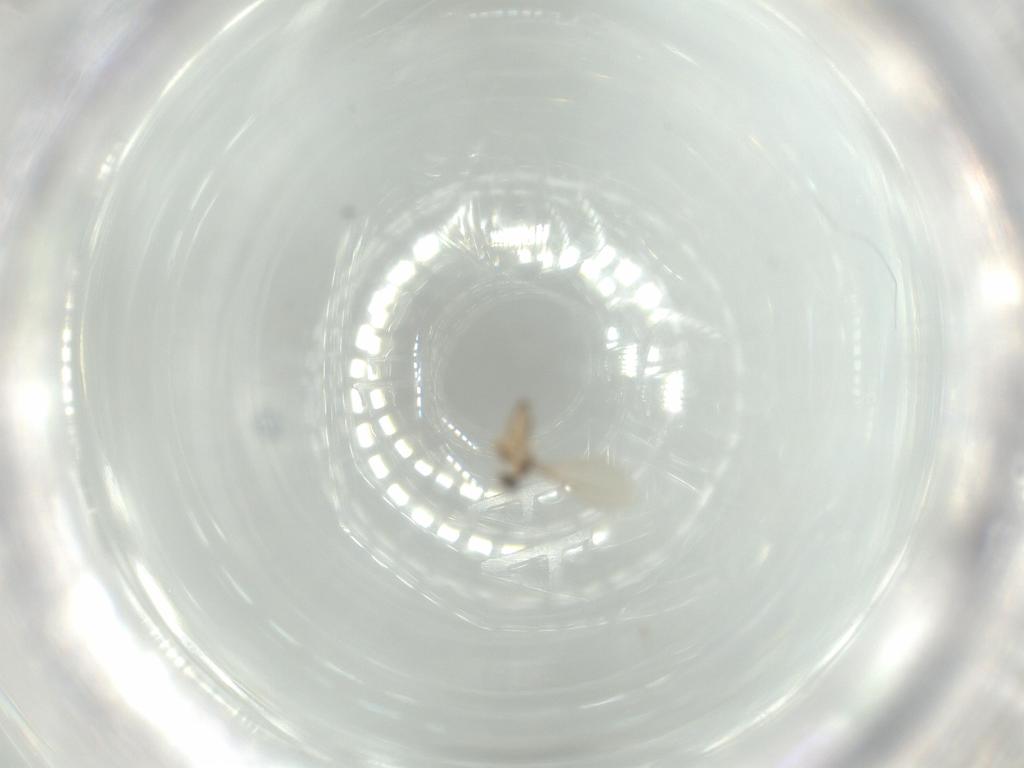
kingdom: Animalia
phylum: Arthropoda
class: Insecta
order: Diptera
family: Cecidomyiidae
